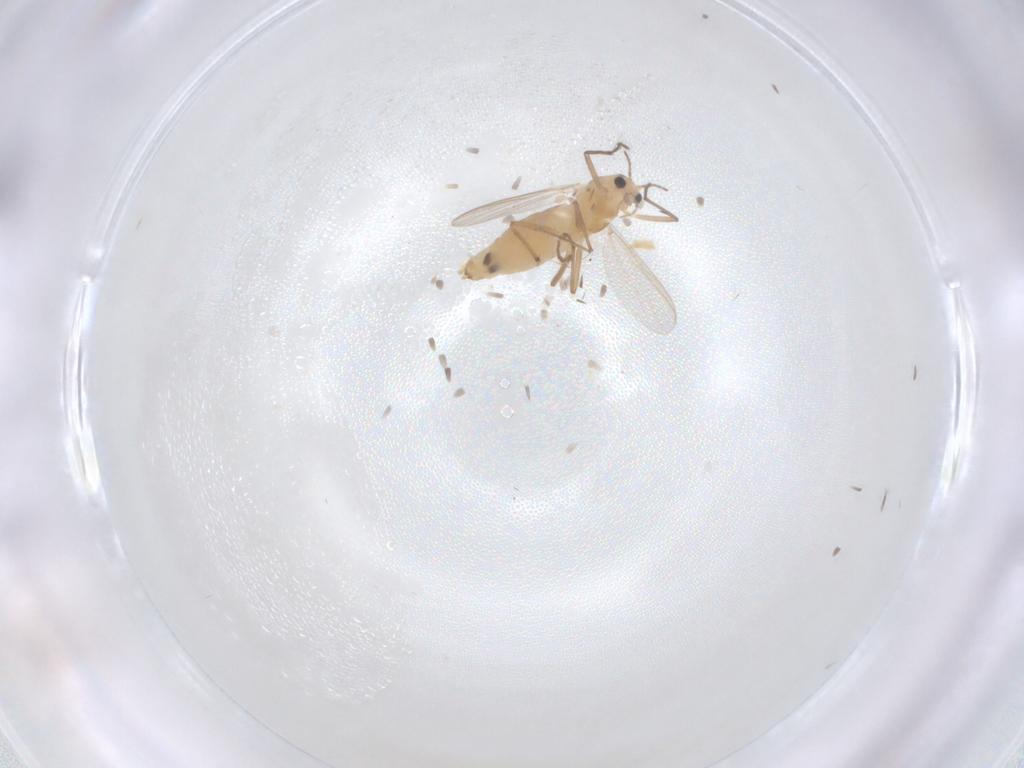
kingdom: Animalia
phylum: Arthropoda
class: Insecta
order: Diptera
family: Chironomidae
